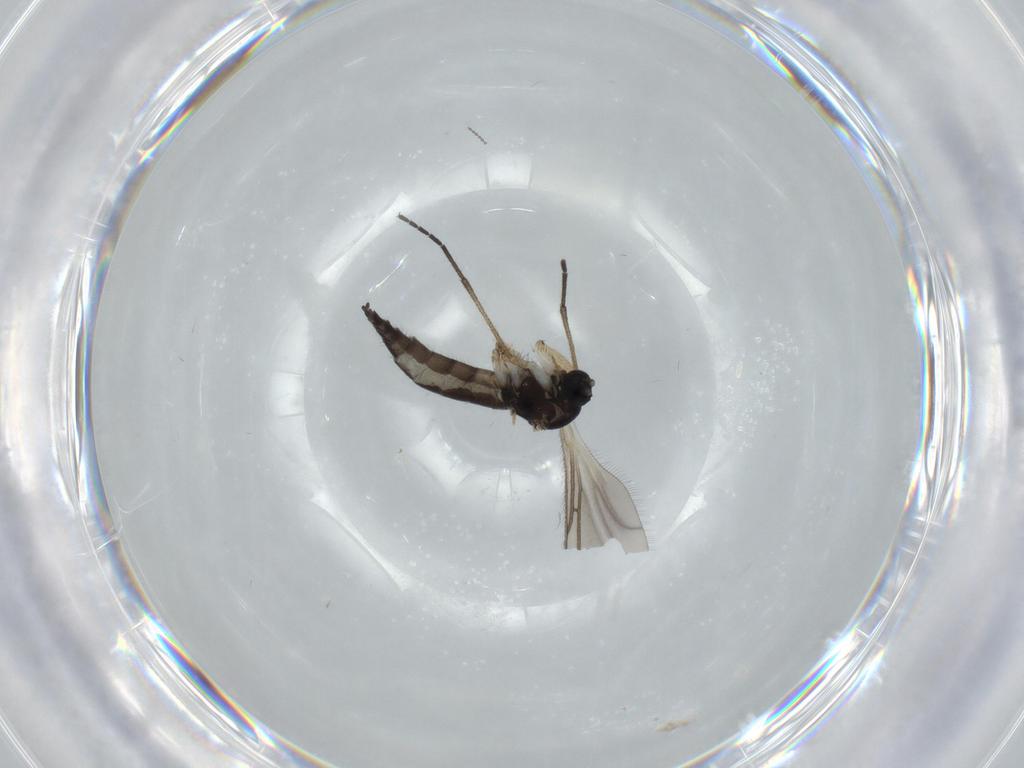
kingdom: Animalia
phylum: Arthropoda
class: Insecta
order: Diptera
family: Sciaridae
